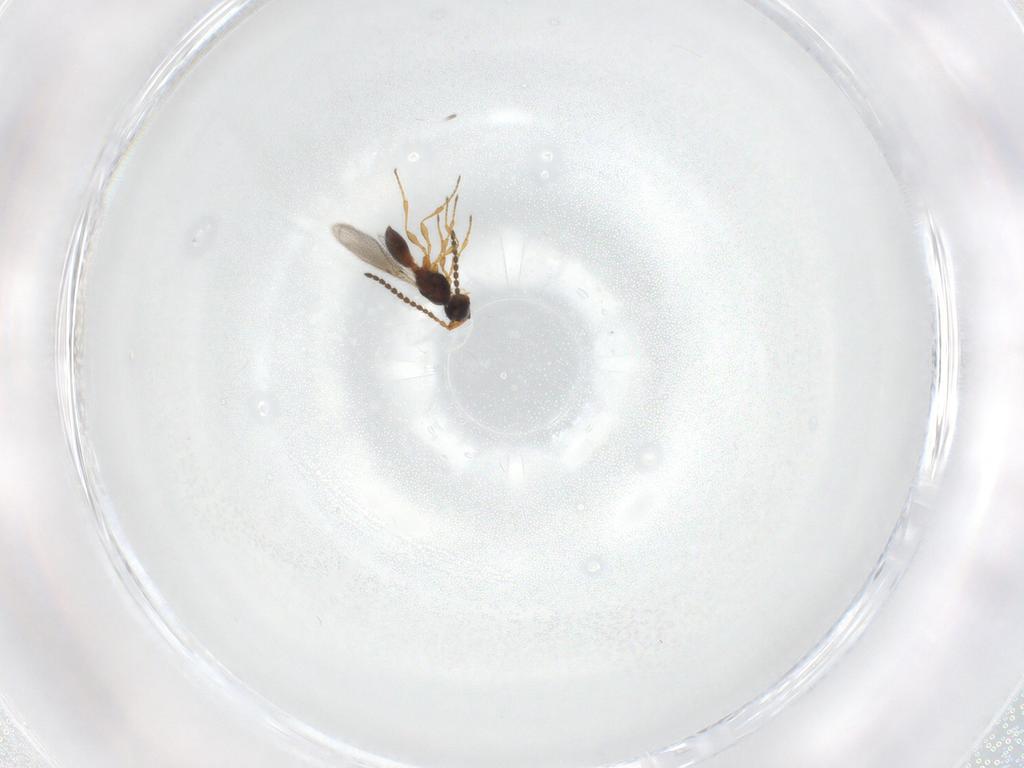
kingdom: Animalia
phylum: Arthropoda
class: Insecta
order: Hymenoptera
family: Diapriidae
